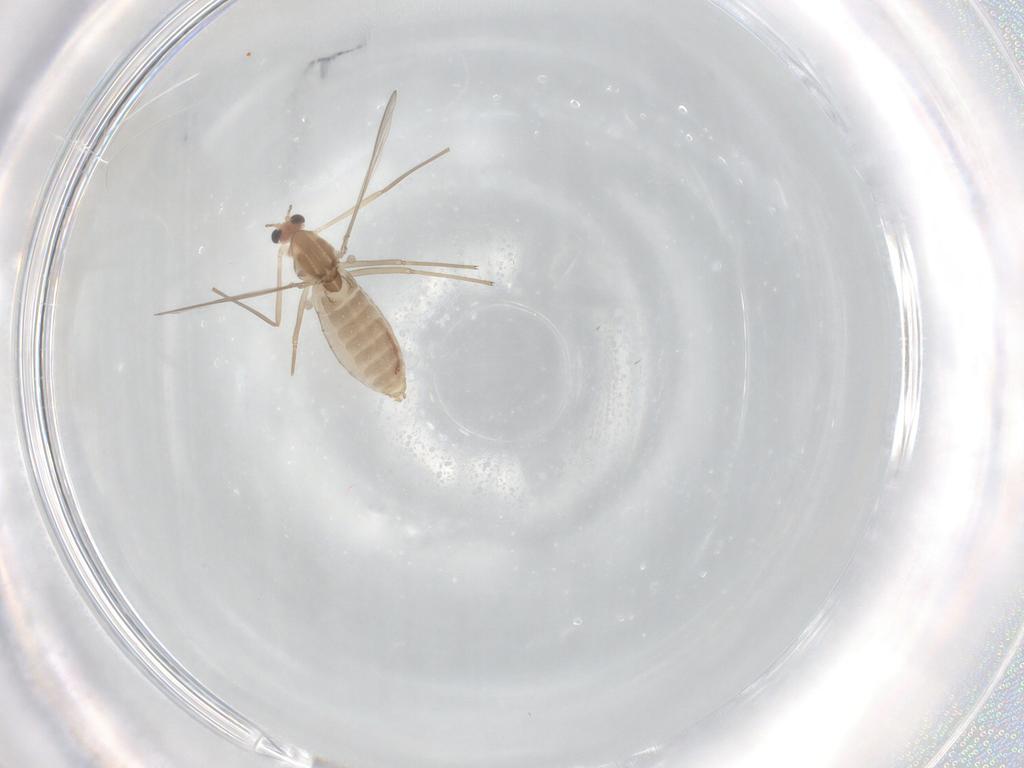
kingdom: Animalia
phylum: Arthropoda
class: Insecta
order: Diptera
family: Chironomidae
